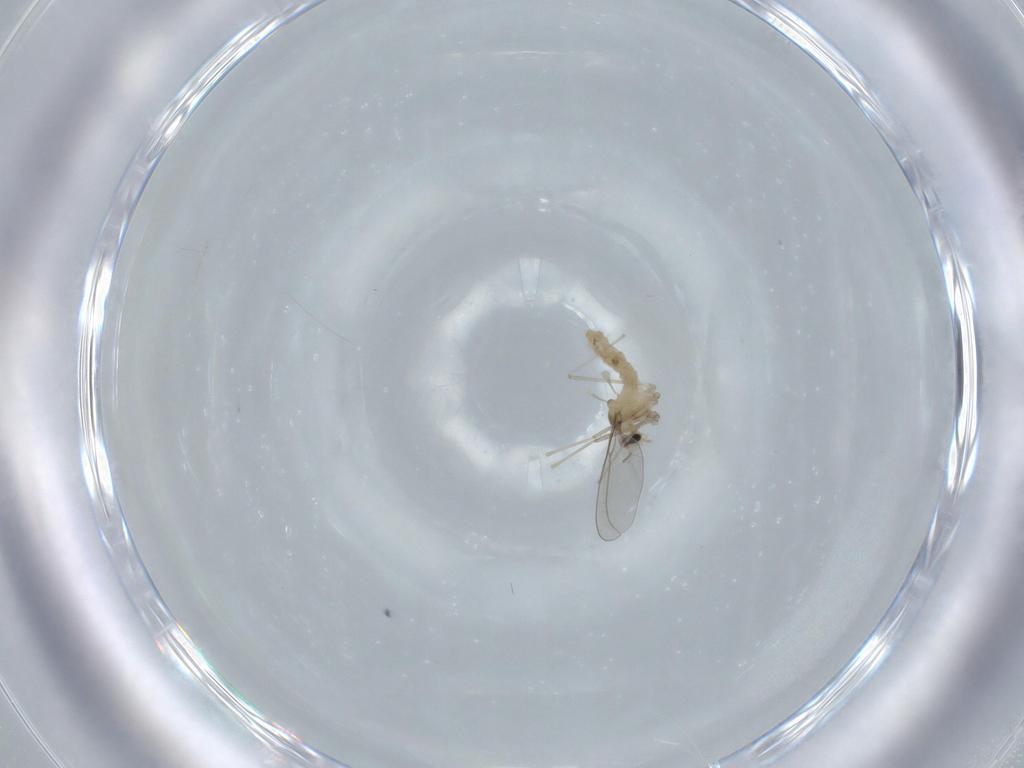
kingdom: Animalia
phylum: Arthropoda
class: Insecta
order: Diptera
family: Cecidomyiidae
